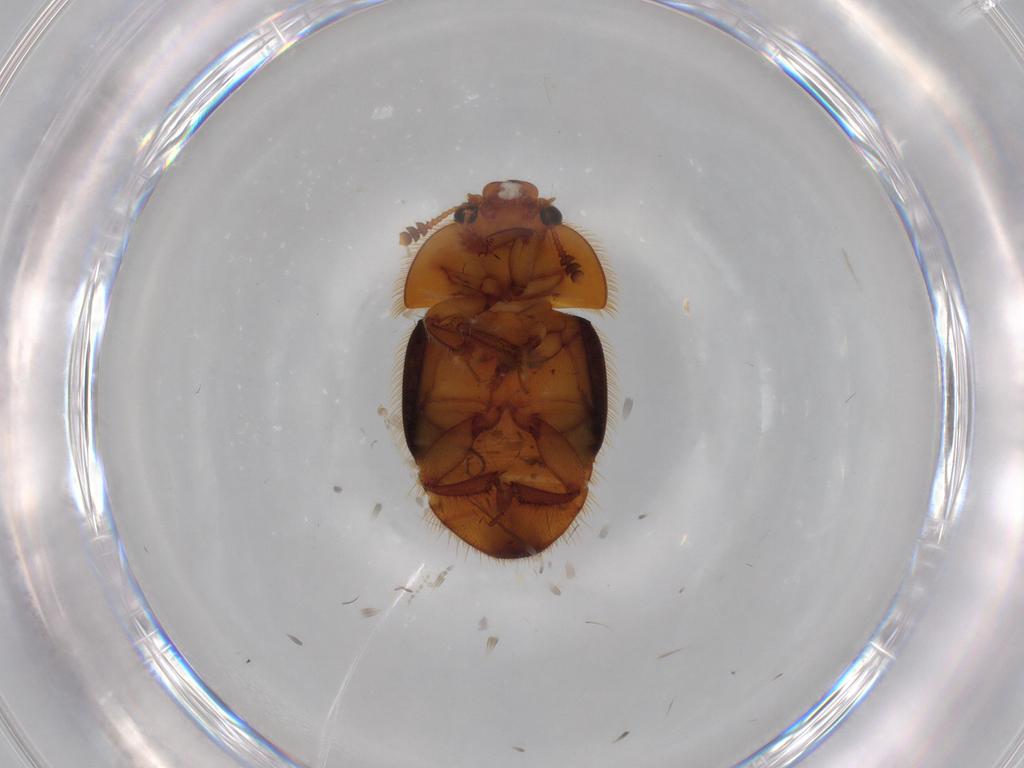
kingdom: Animalia
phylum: Arthropoda
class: Insecta
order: Coleoptera
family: Nitidulidae
